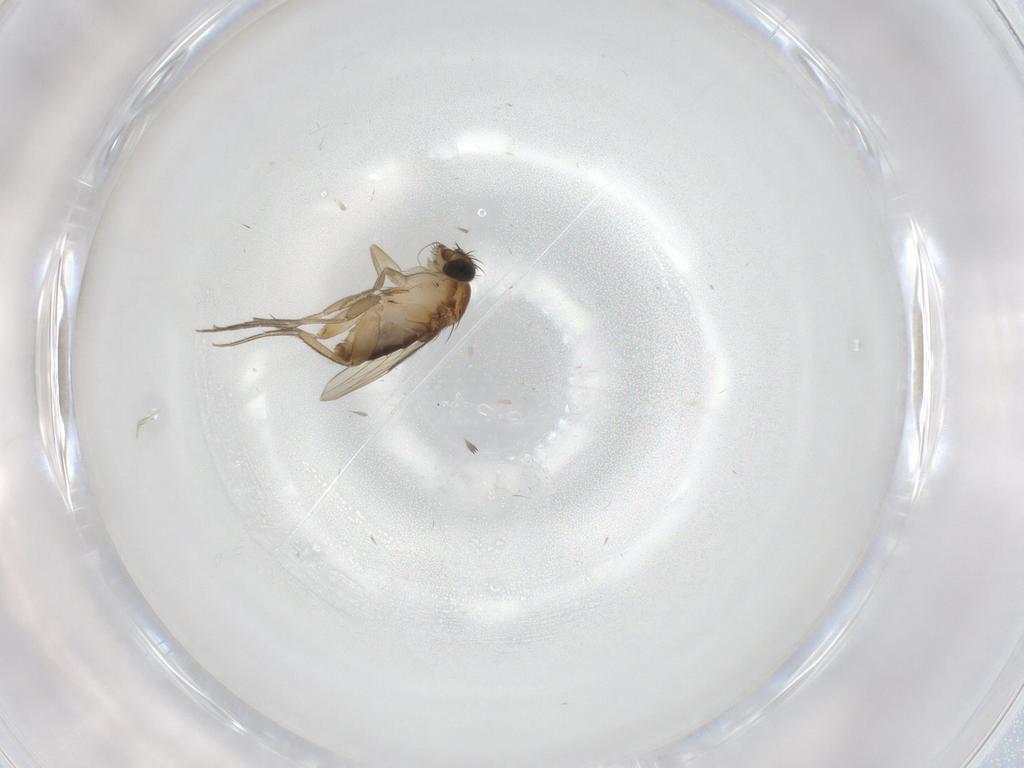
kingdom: Animalia
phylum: Arthropoda
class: Insecta
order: Diptera
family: Phoridae
